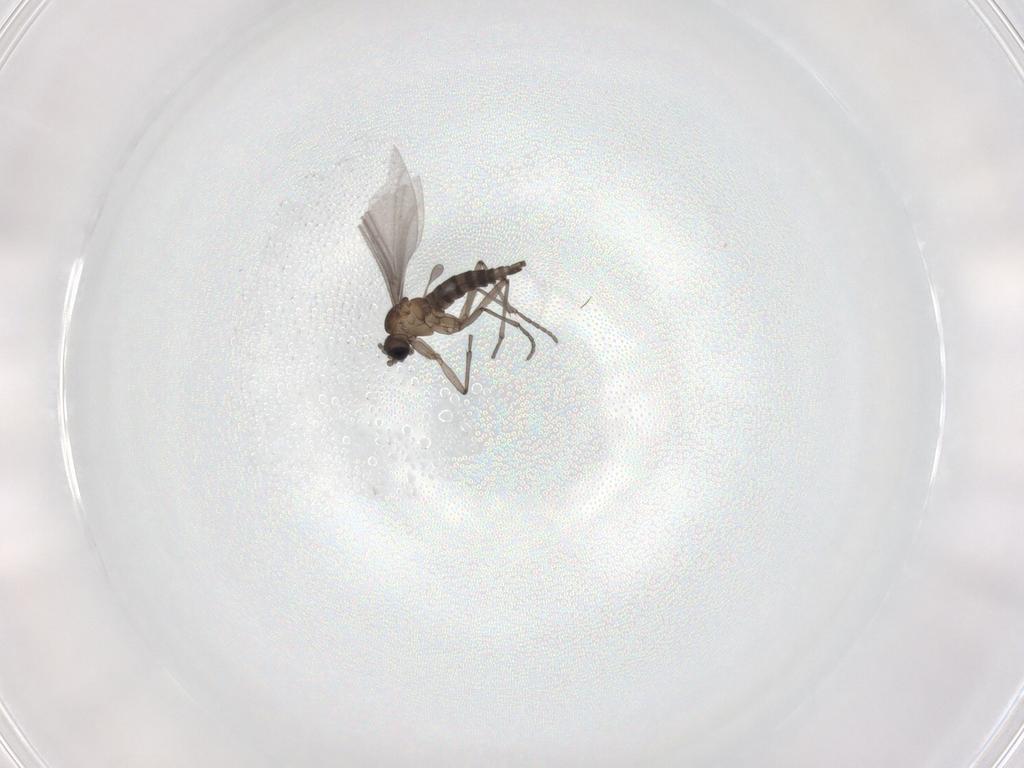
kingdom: Animalia
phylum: Arthropoda
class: Insecta
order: Diptera
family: Sciaridae
